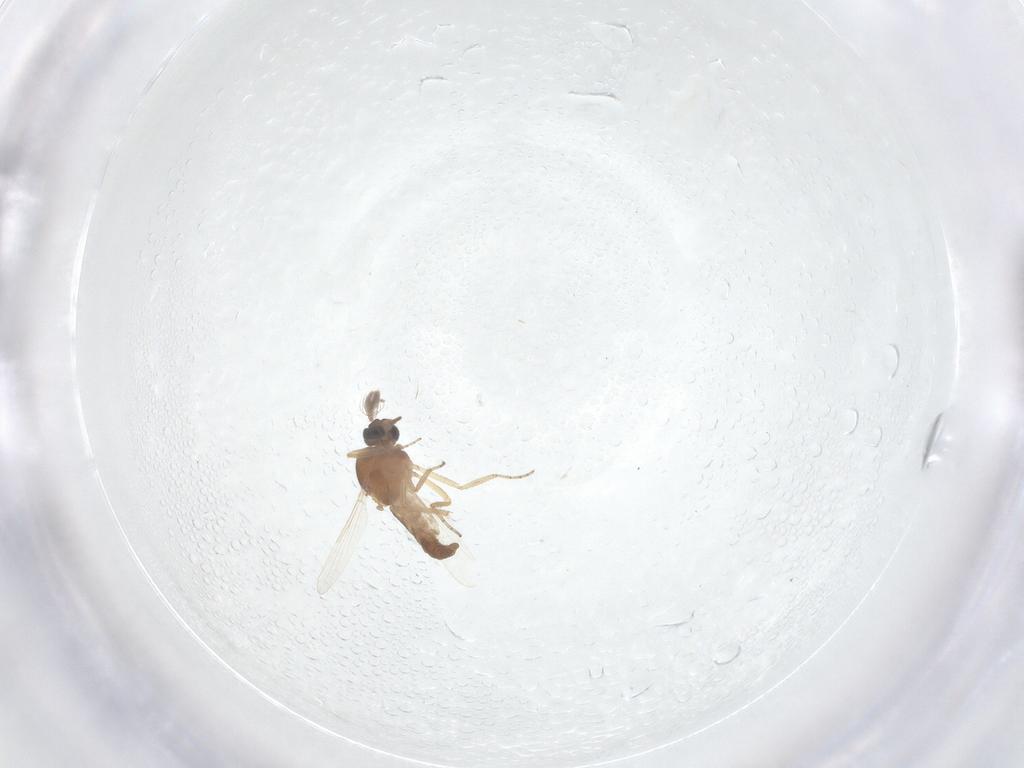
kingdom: Animalia
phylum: Arthropoda
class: Insecta
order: Diptera
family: Ceratopogonidae
